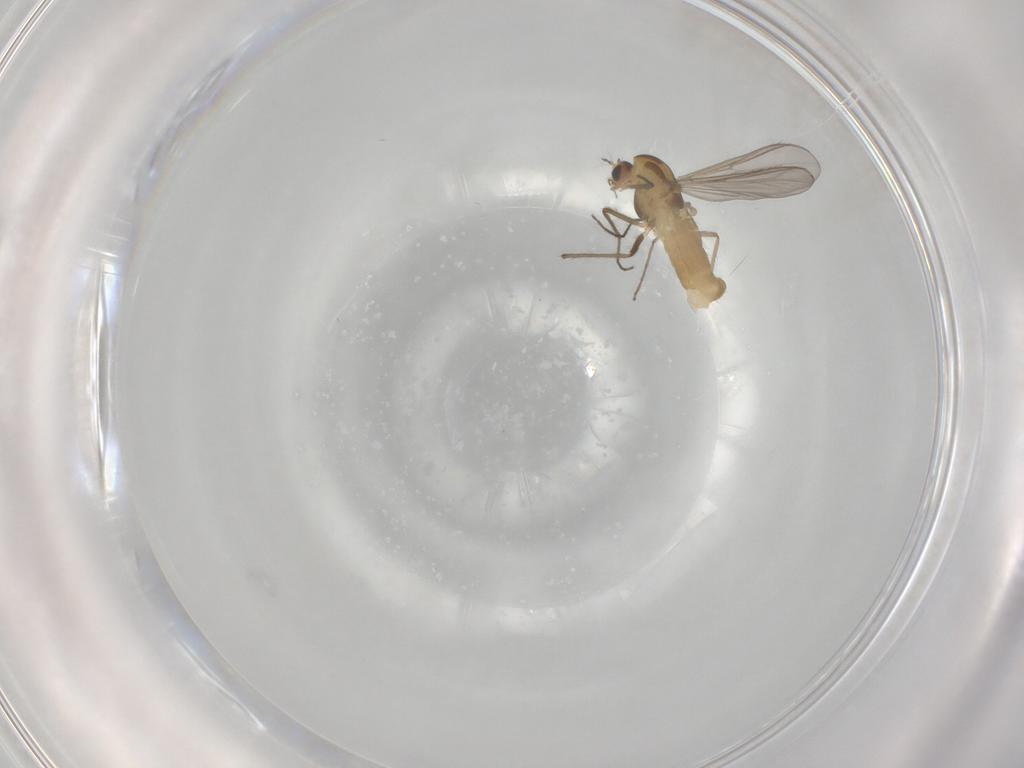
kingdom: Animalia
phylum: Arthropoda
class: Insecta
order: Diptera
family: Chironomidae
